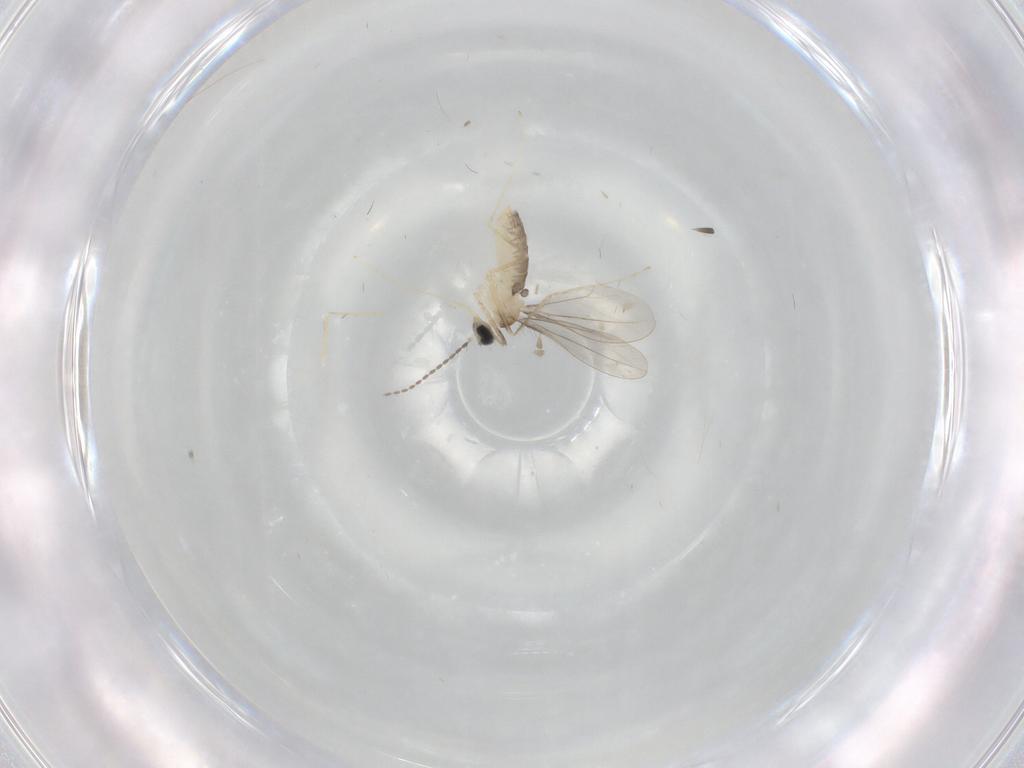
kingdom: Animalia
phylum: Arthropoda
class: Insecta
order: Diptera
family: Cecidomyiidae
